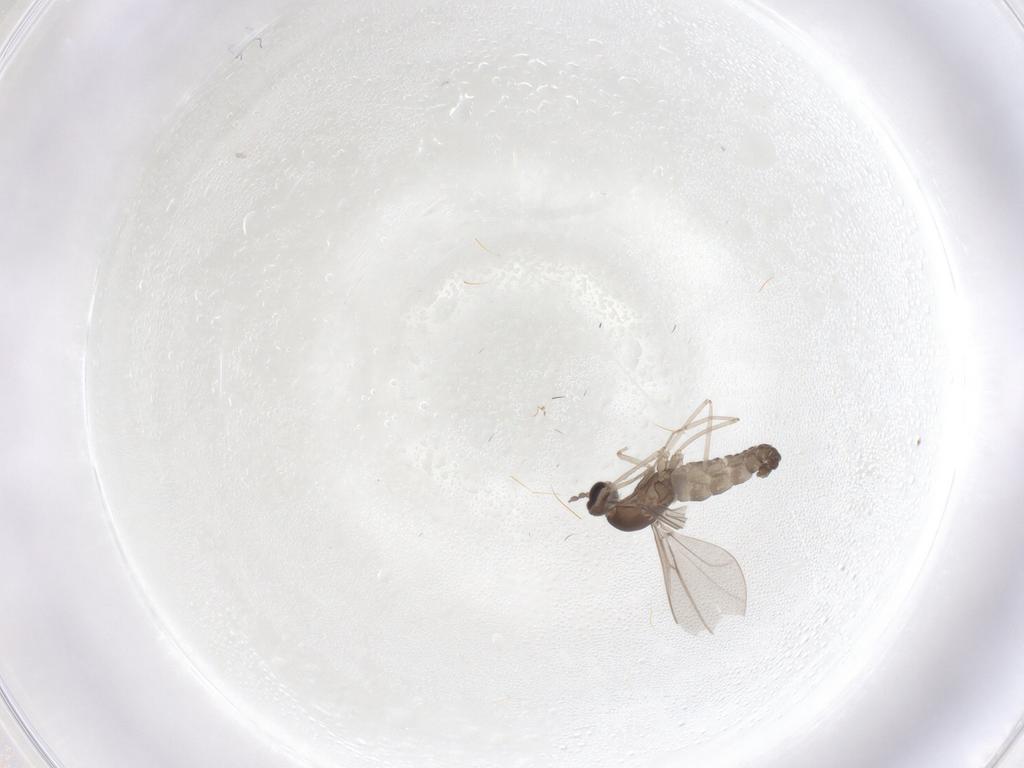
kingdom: Animalia
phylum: Arthropoda
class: Insecta
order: Diptera
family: Cecidomyiidae
